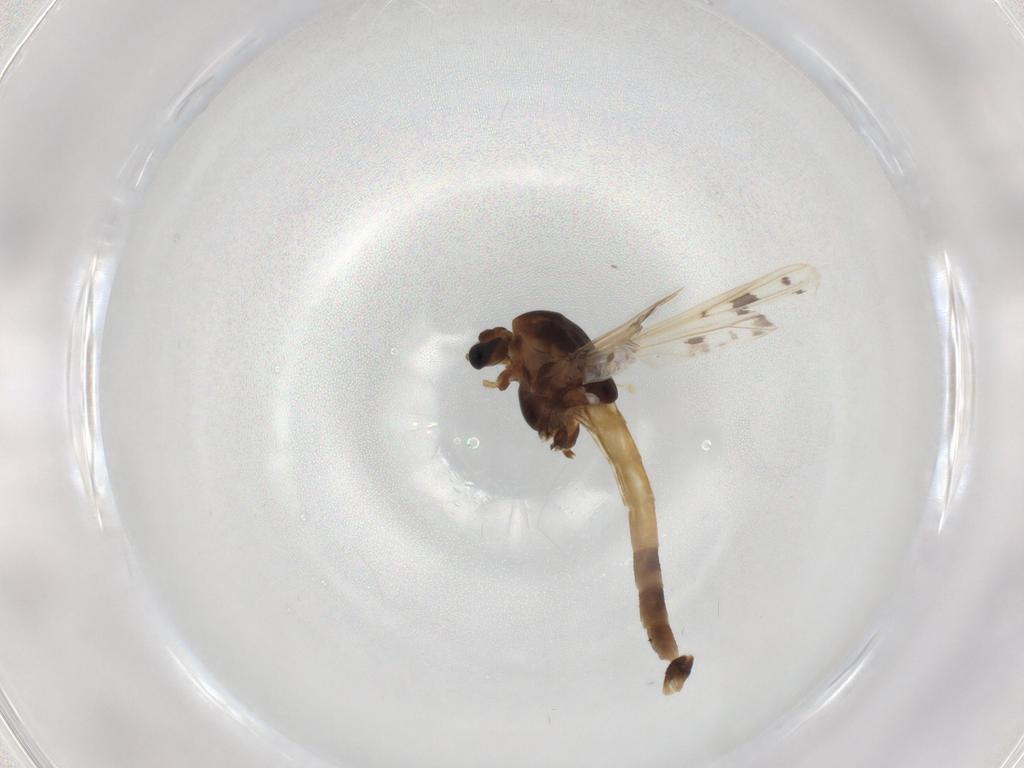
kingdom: Animalia
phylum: Arthropoda
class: Insecta
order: Diptera
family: Chironomidae
